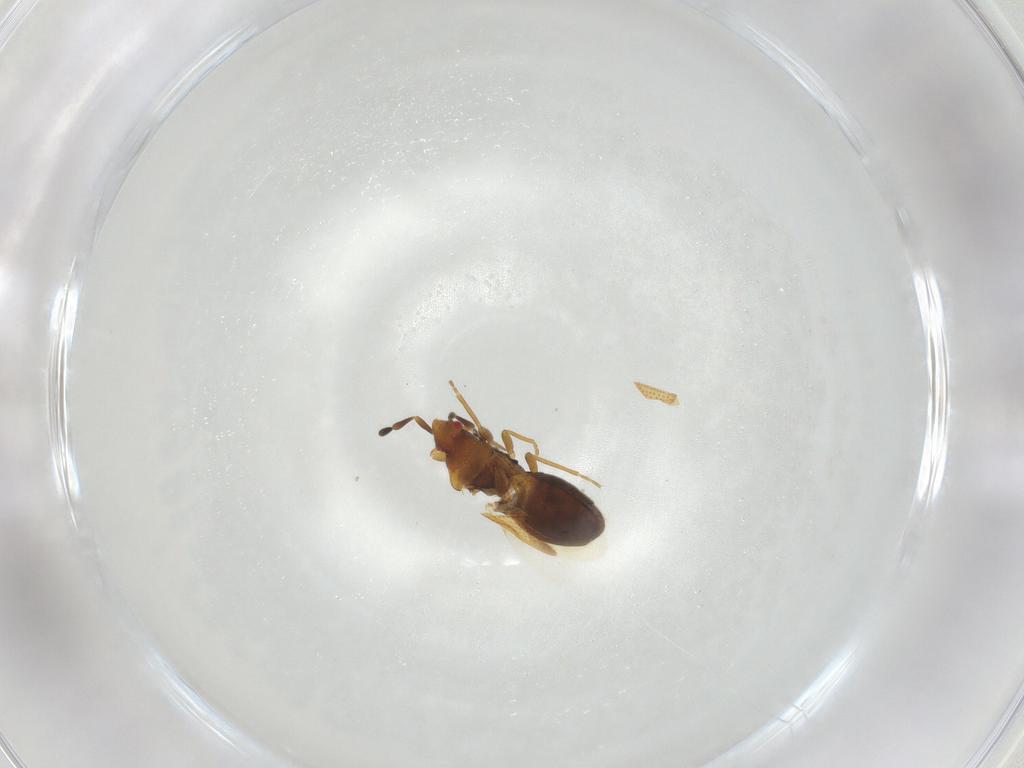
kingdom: Animalia
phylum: Arthropoda
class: Insecta
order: Hemiptera
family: Rhyparochromidae
